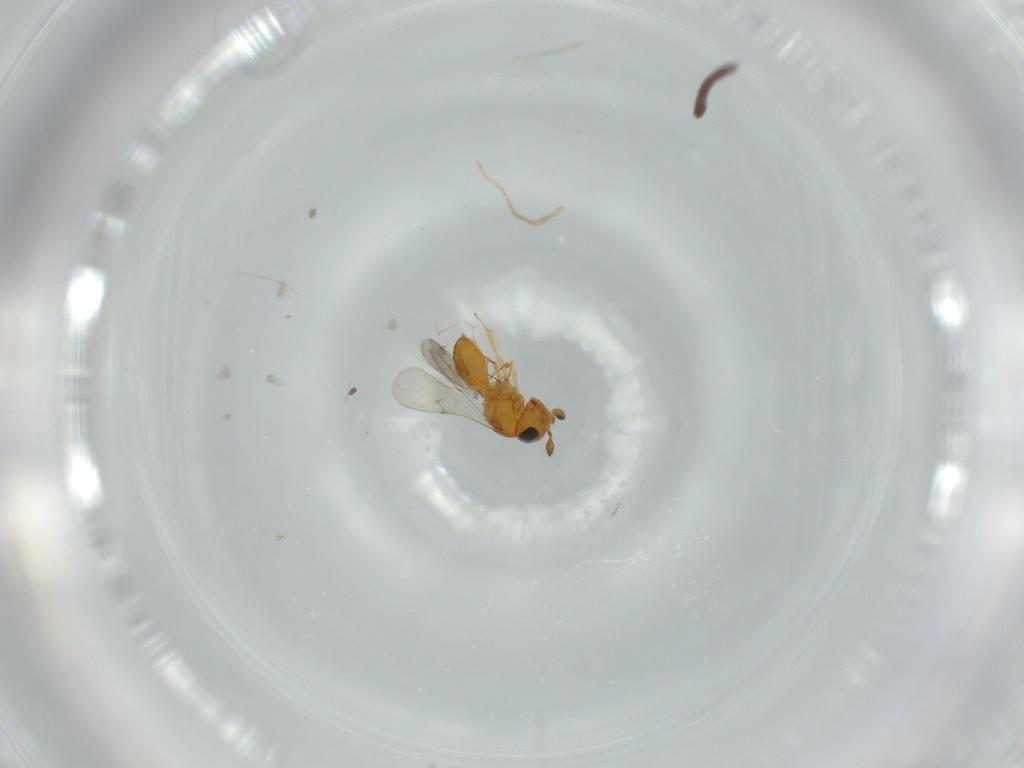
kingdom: Animalia
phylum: Arthropoda
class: Insecta
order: Hymenoptera
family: Scelionidae
